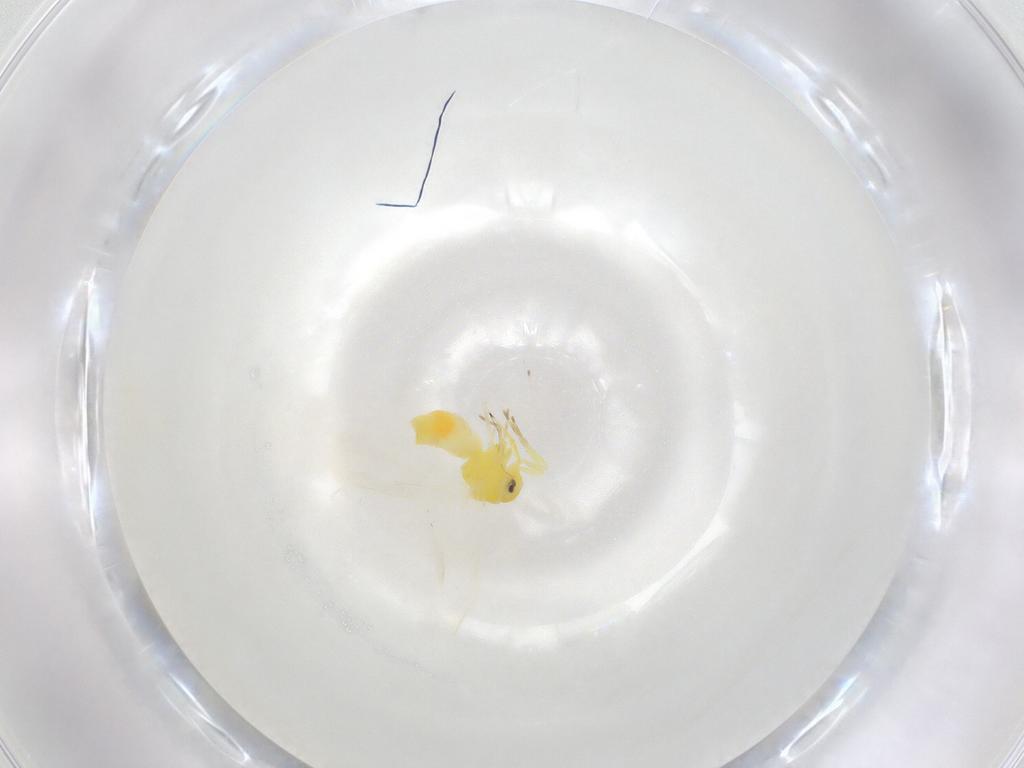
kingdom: Animalia
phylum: Arthropoda
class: Insecta
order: Hemiptera
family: Aleyrodidae
